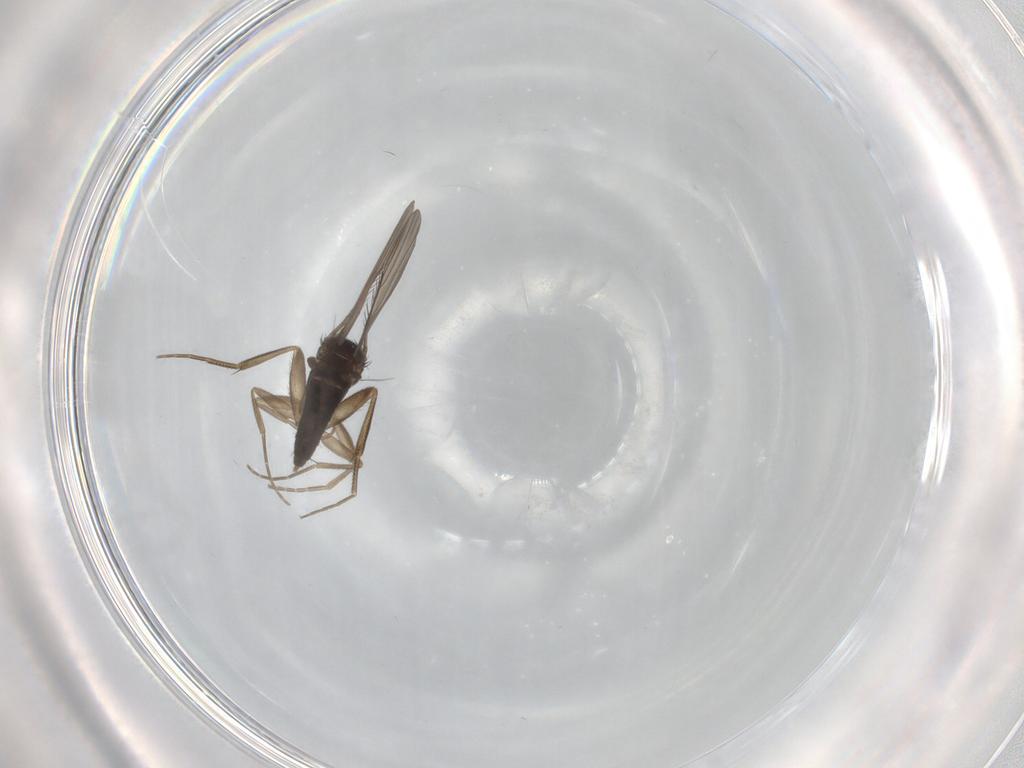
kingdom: Animalia
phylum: Arthropoda
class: Insecta
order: Diptera
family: Phoridae
